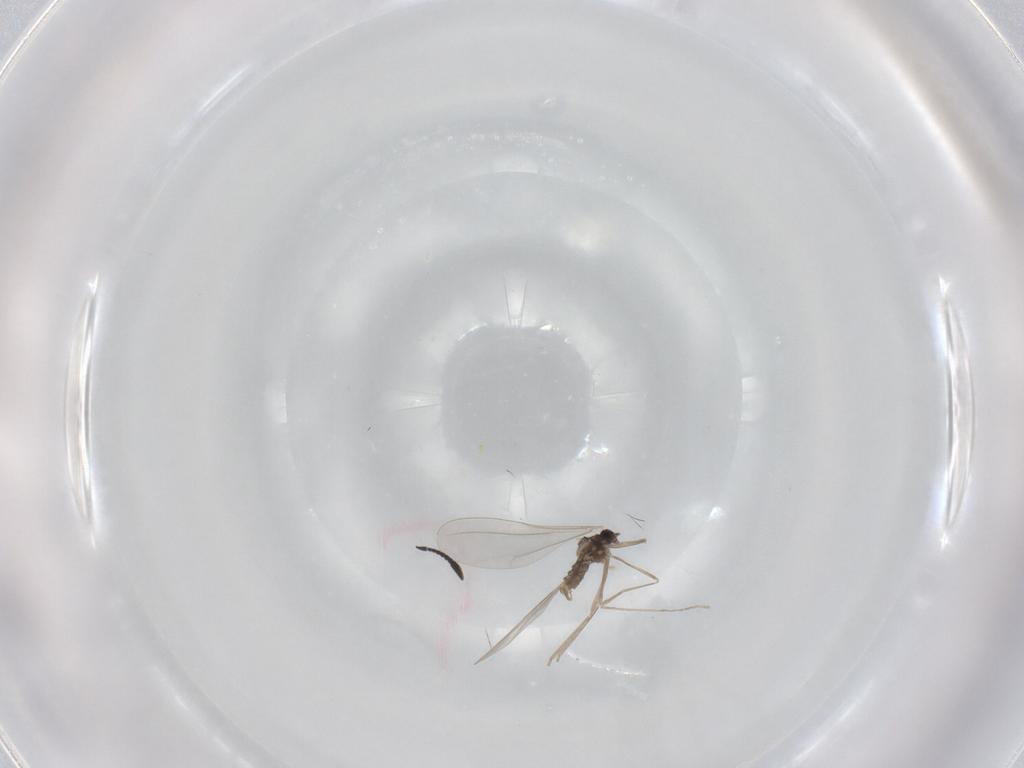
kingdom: Animalia
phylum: Arthropoda
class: Insecta
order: Diptera
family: Cecidomyiidae
